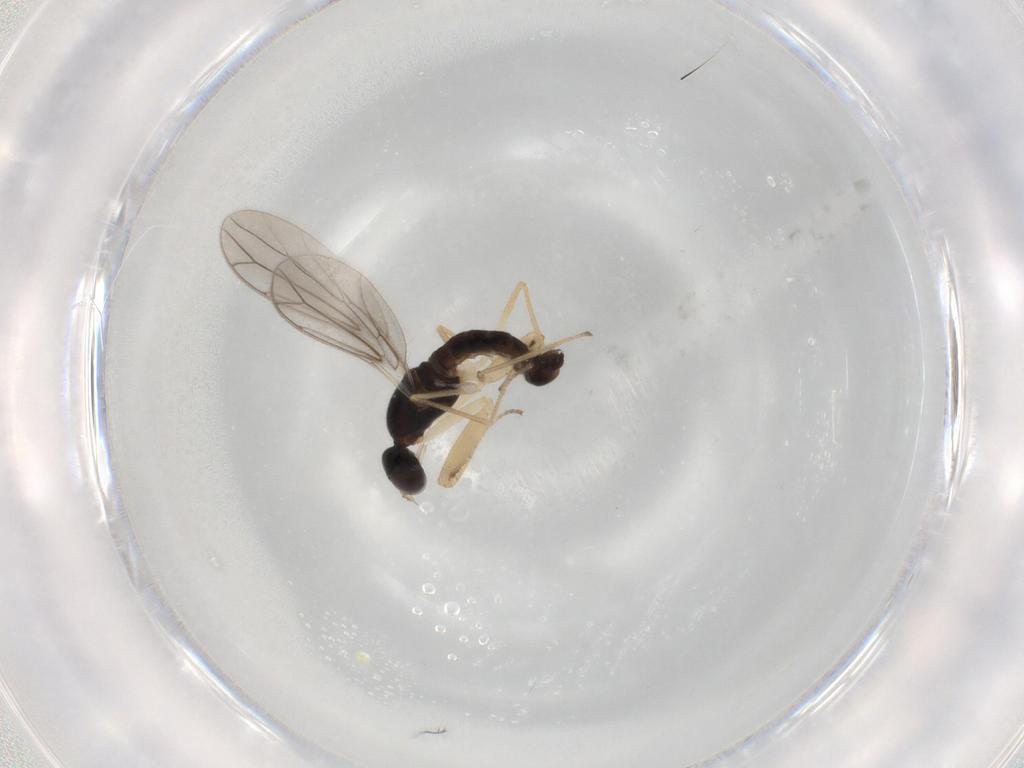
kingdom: Animalia
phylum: Arthropoda
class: Insecta
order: Diptera
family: Empididae
